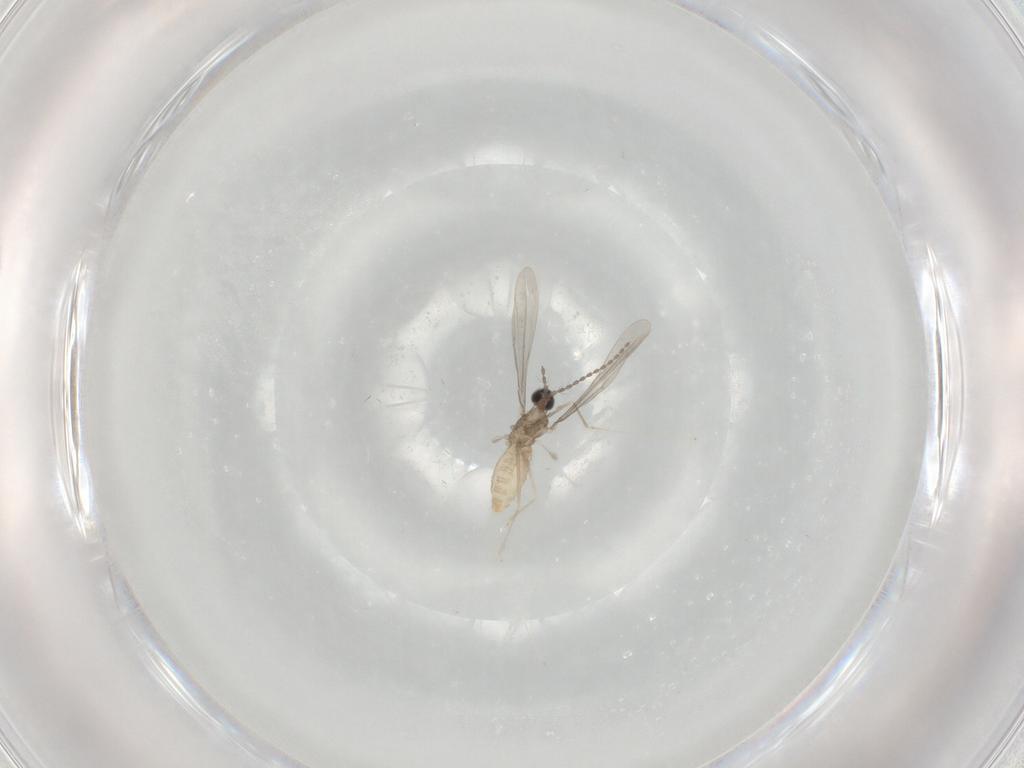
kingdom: Animalia
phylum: Arthropoda
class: Insecta
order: Diptera
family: Cecidomyiidae
